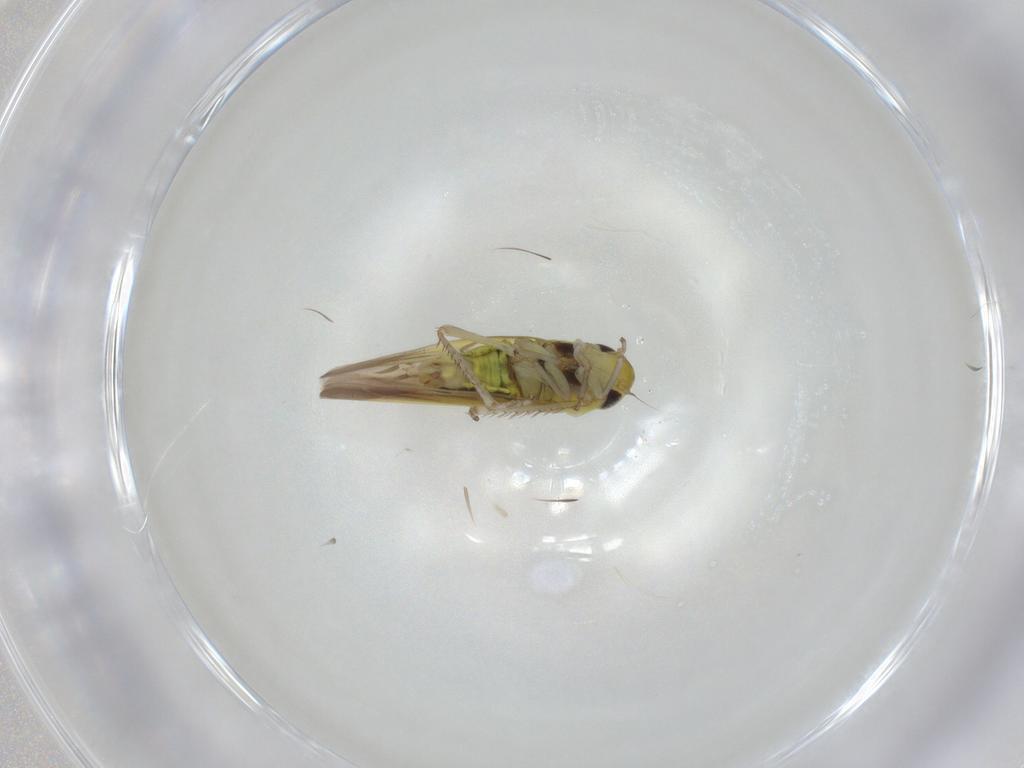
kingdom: Animalia
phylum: Arthropoda
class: Insecta
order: Hemiptera
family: Cicadellidae
